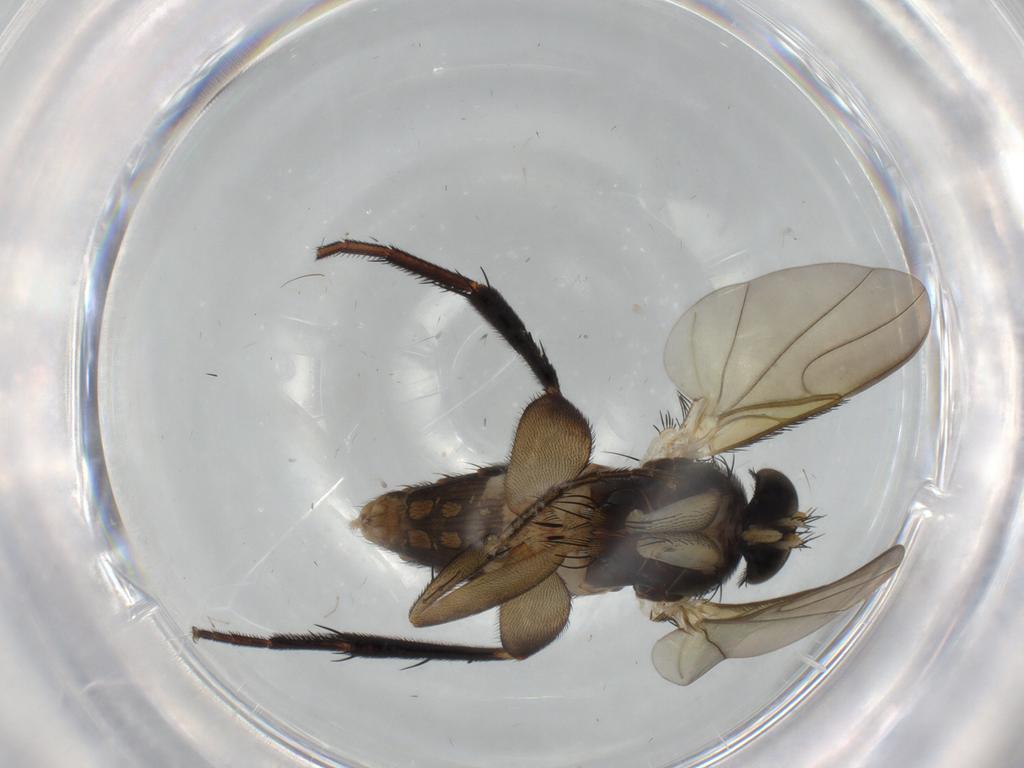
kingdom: Animalia
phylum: Arthropoda
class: Insecta
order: Diptera
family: Phoridae
